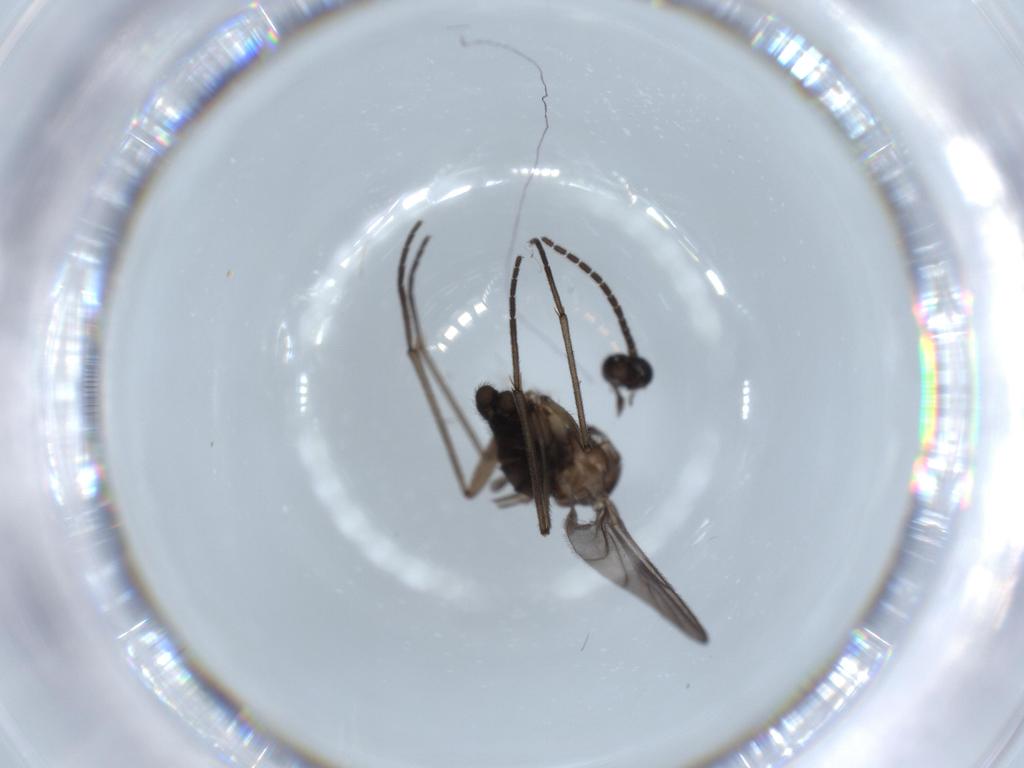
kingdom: Animalia
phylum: Arthropoda
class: Insecta
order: Diptera
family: Sciaridae
